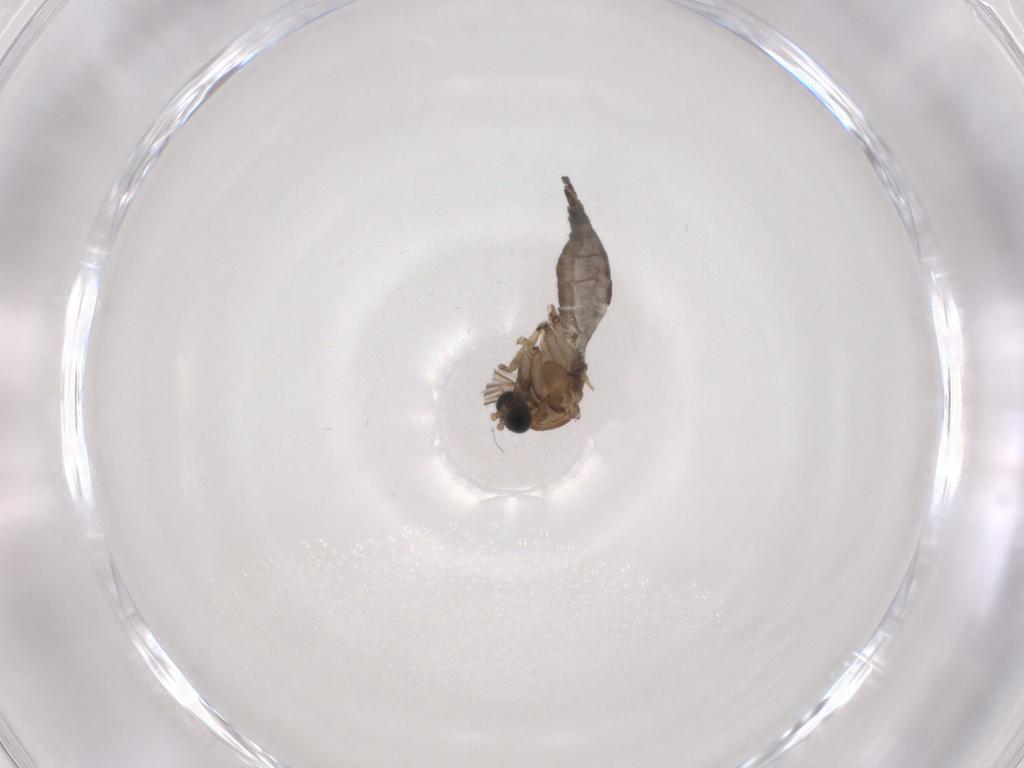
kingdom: Animalia
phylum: Arthropoda
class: Insecta
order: Diptera
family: Sciaridae
